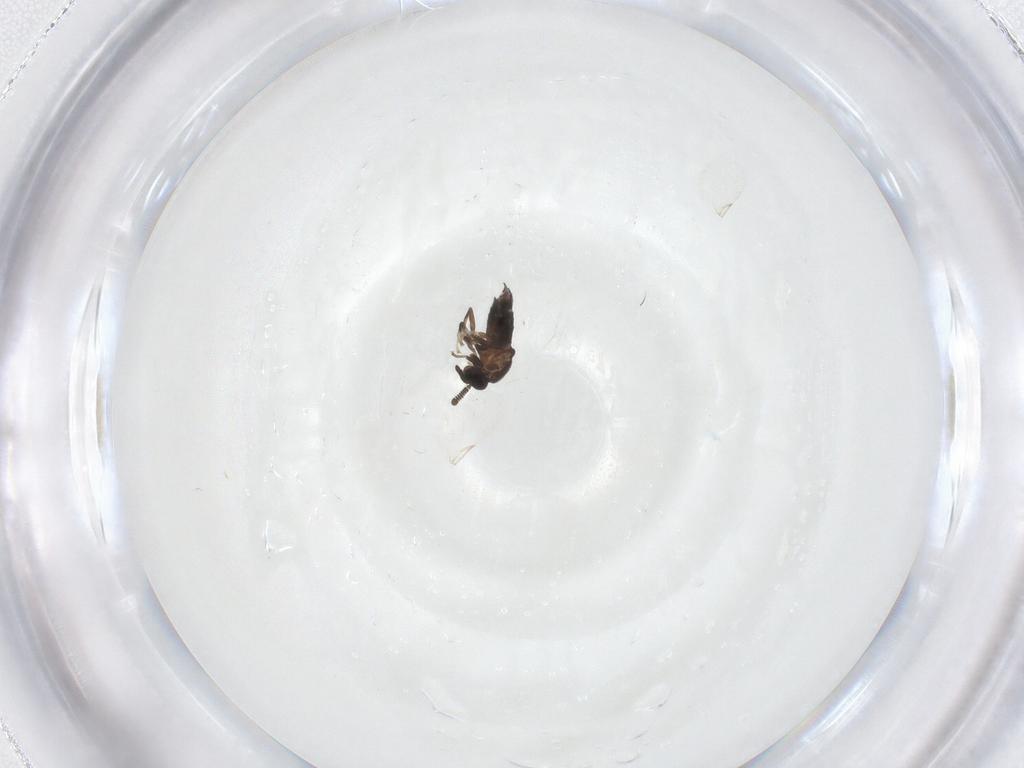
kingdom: Animalia
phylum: Arthropoda
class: Insecta
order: Diptera
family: Scatopsidae
